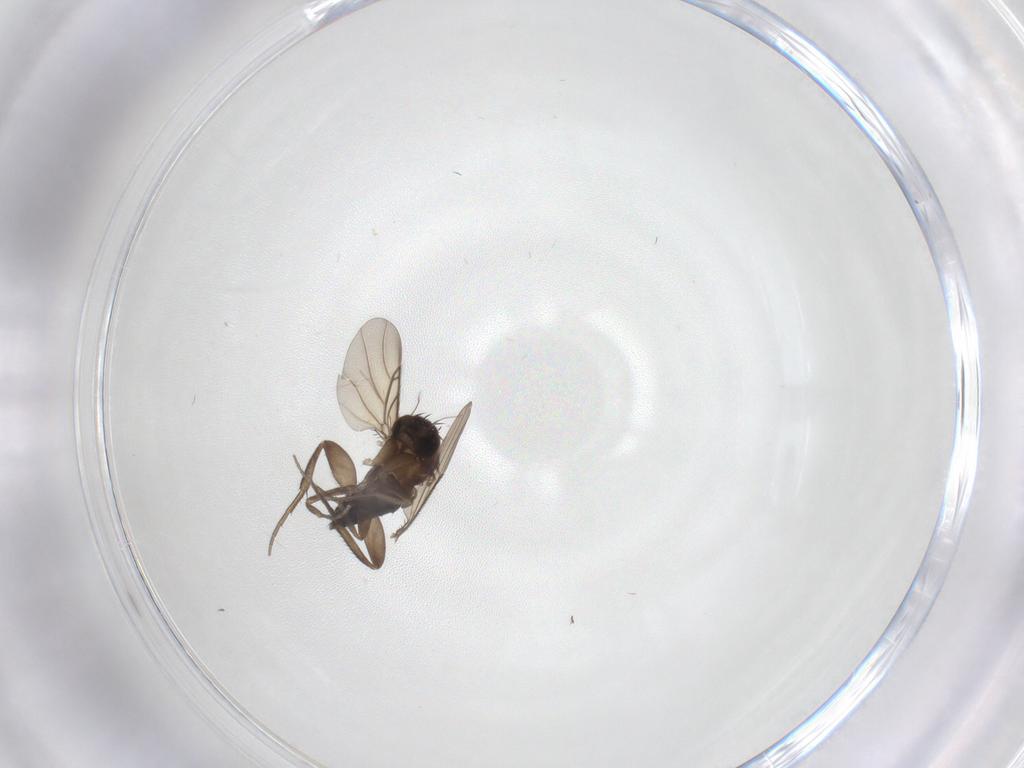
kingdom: Animalia
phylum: Arthropoda
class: Insecta
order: Diptera
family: Phoridae
